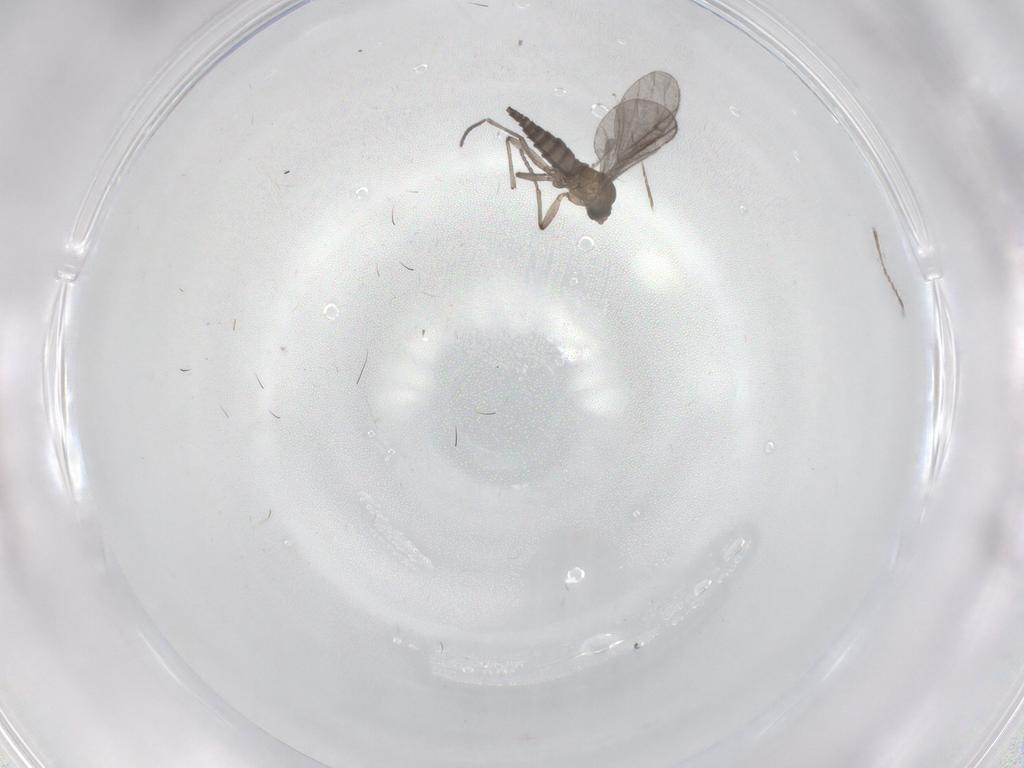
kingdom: Animalia
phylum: Arthropoda
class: Insecta
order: Diptera
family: Sciaridae
